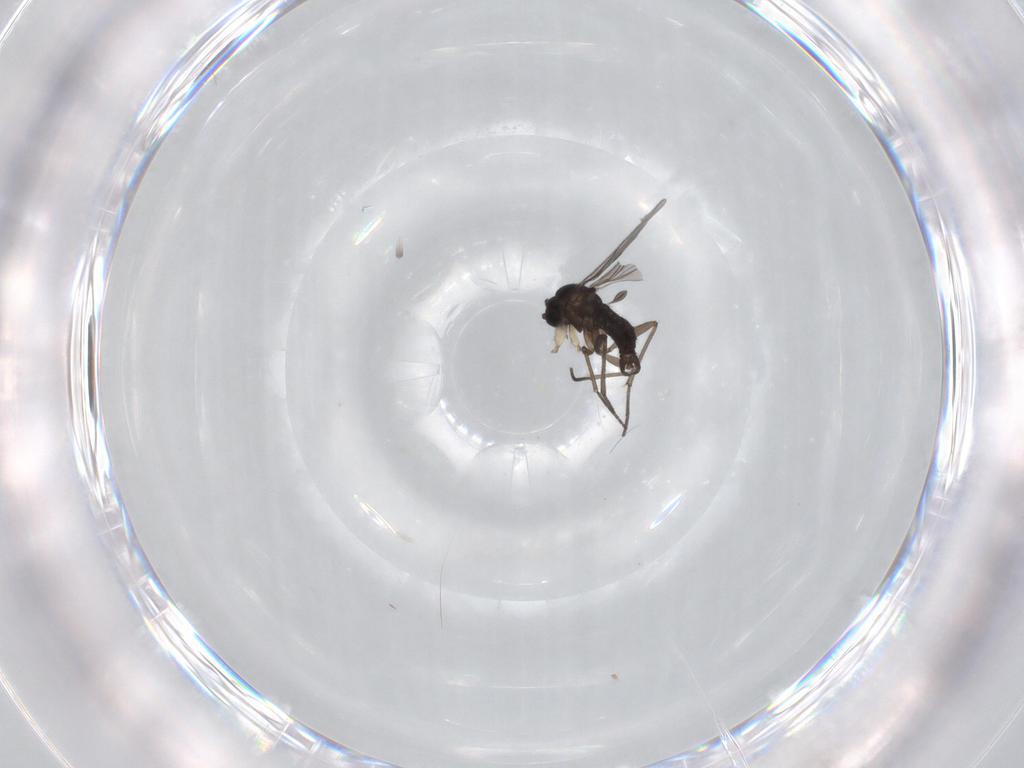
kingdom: Animalia
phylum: Arthropoda
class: Insecta
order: Diptera
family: Sciaridae
